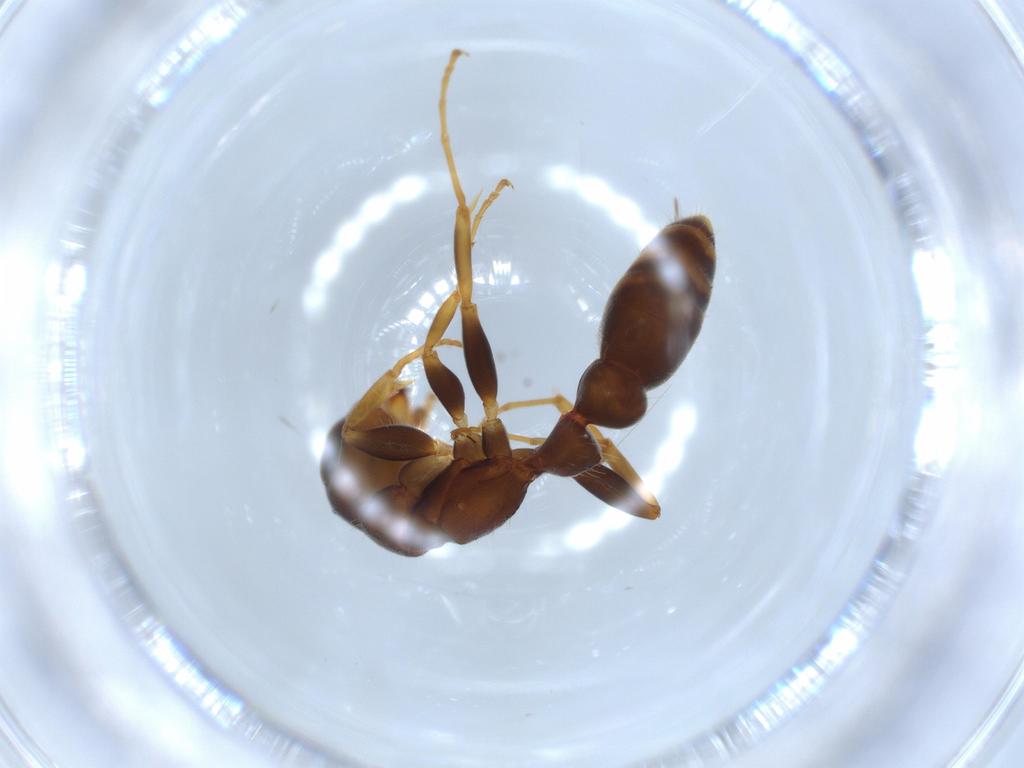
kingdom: Animalia
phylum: Arthropoda
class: Insecta
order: Hymenoptera
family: Formicidae
